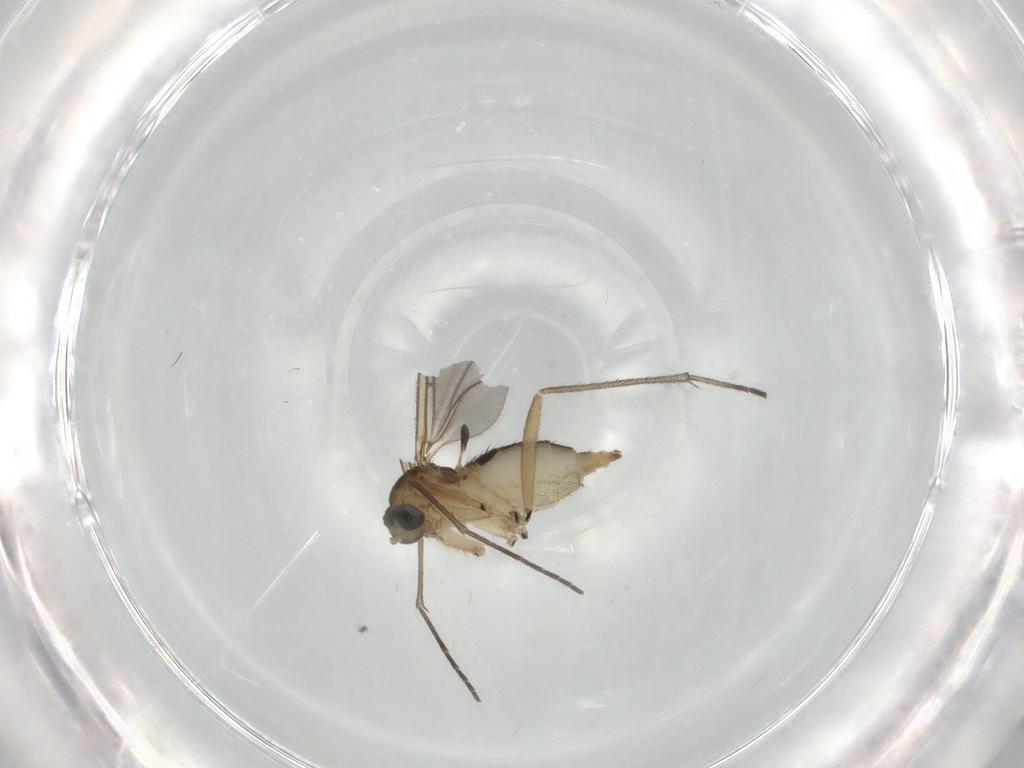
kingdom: Animalia
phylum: Arthropoda
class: Insecta
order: Diptera
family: Sciaridae
